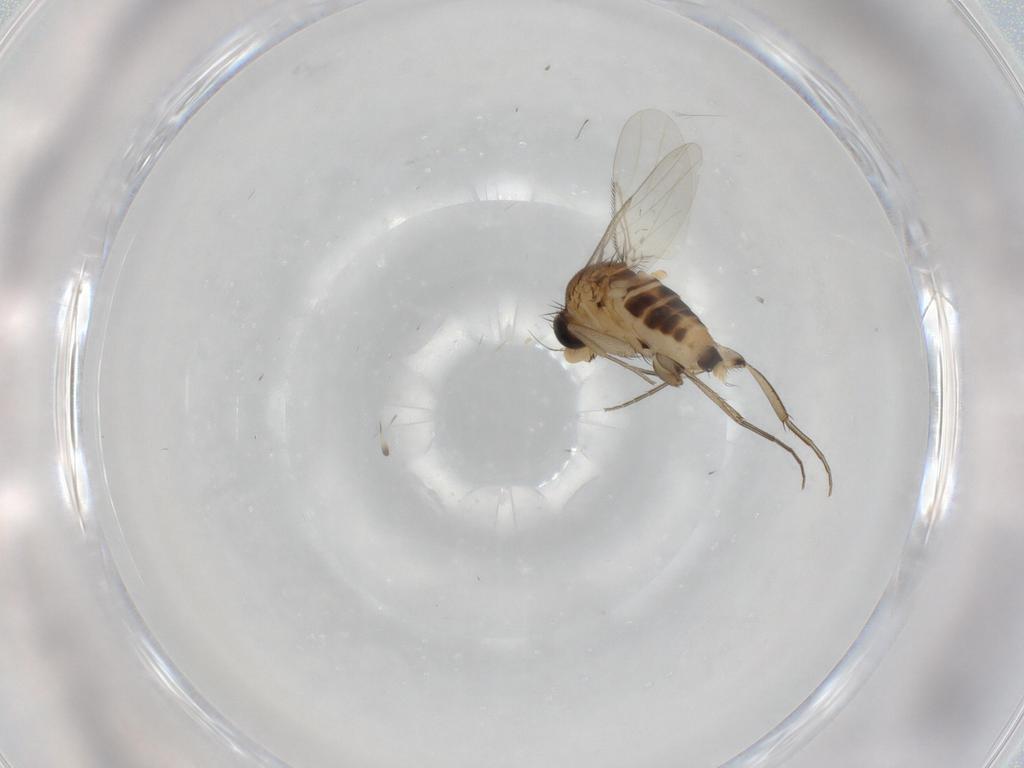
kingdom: Animalia
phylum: Arthropoda
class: Insecta
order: Diptera
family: Phoridae
